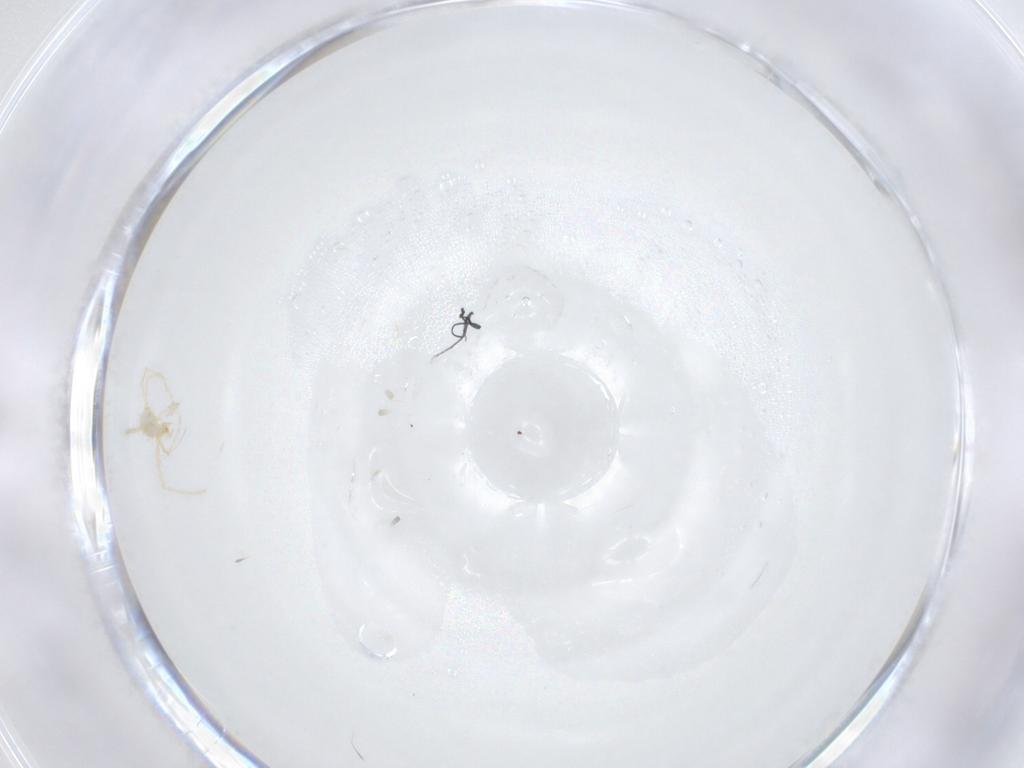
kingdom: Animalia
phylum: Arthropoda
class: Arachnida
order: Trombidiformes
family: Erythraeidae
